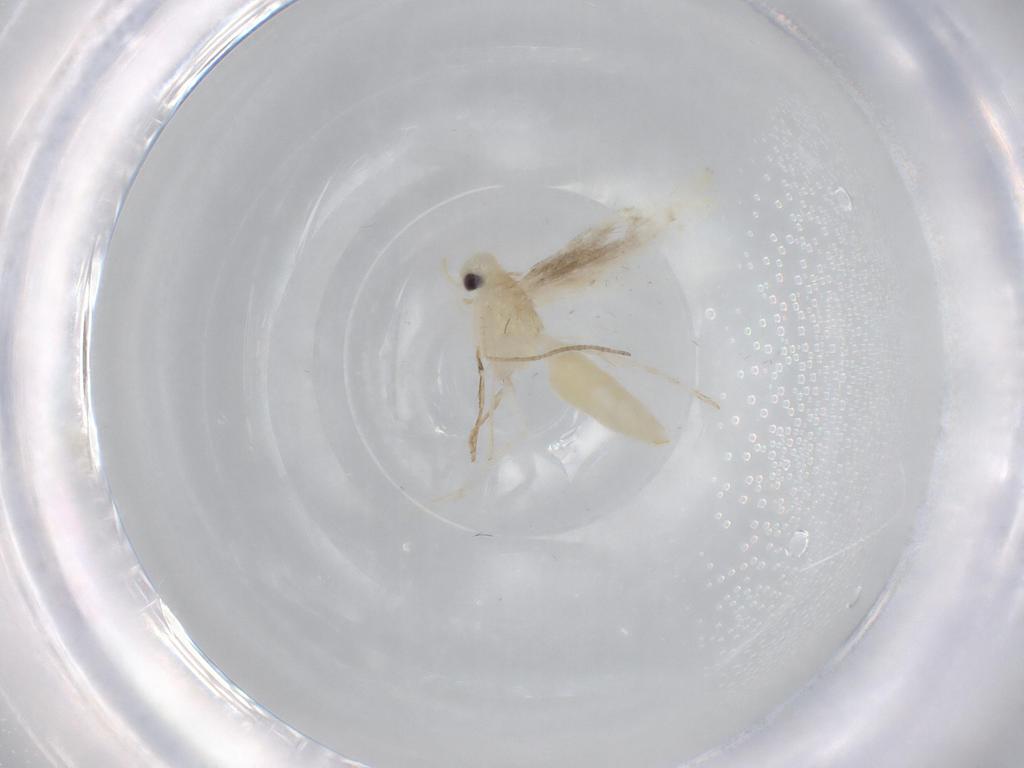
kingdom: Animalia
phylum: Arthropoda
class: Insecta
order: Lepidoptera
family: Gracillariidae
